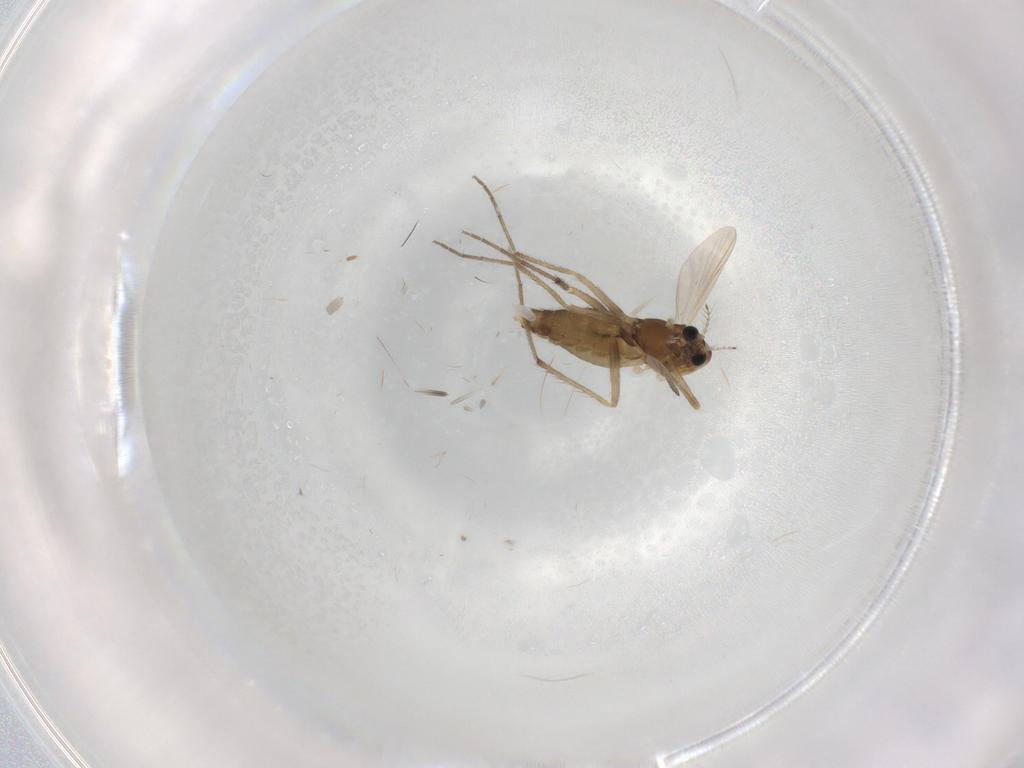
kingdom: Animalia
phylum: Arthropoda
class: Insecta
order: Diptera
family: Chironomidae
